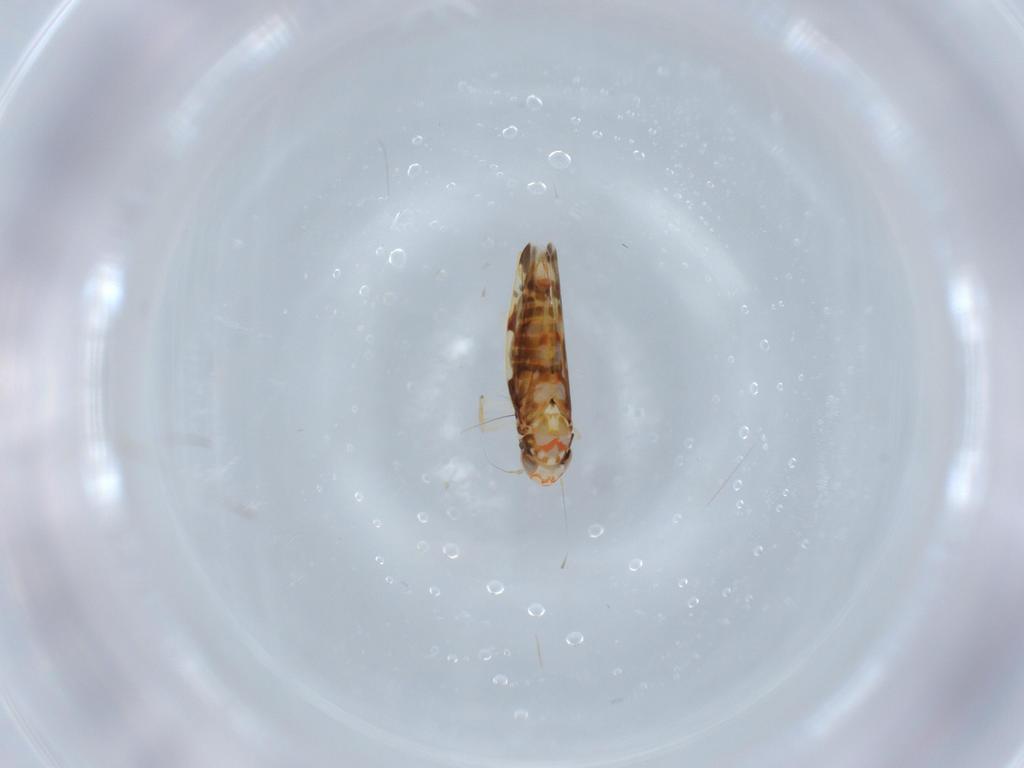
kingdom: Animalia
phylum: Arthropoda
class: Insecta
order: Hemiptera
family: Cicadellidae
